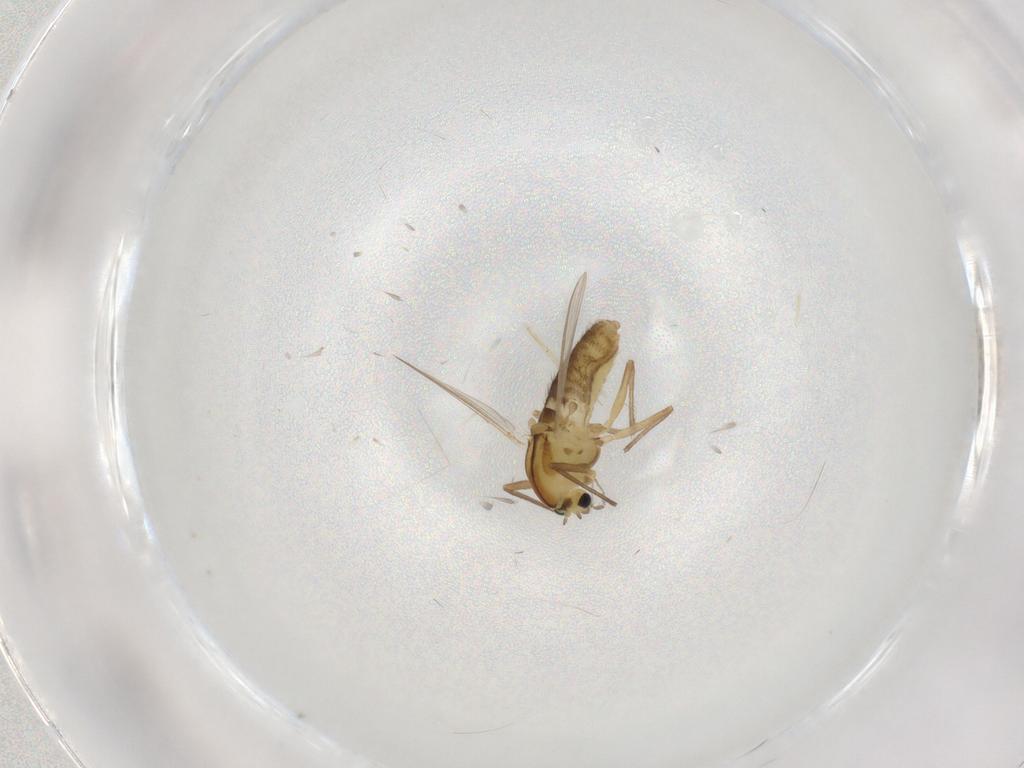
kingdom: Animalia
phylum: Arthropoda
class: Insecta
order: Diptera
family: Chironomidae
